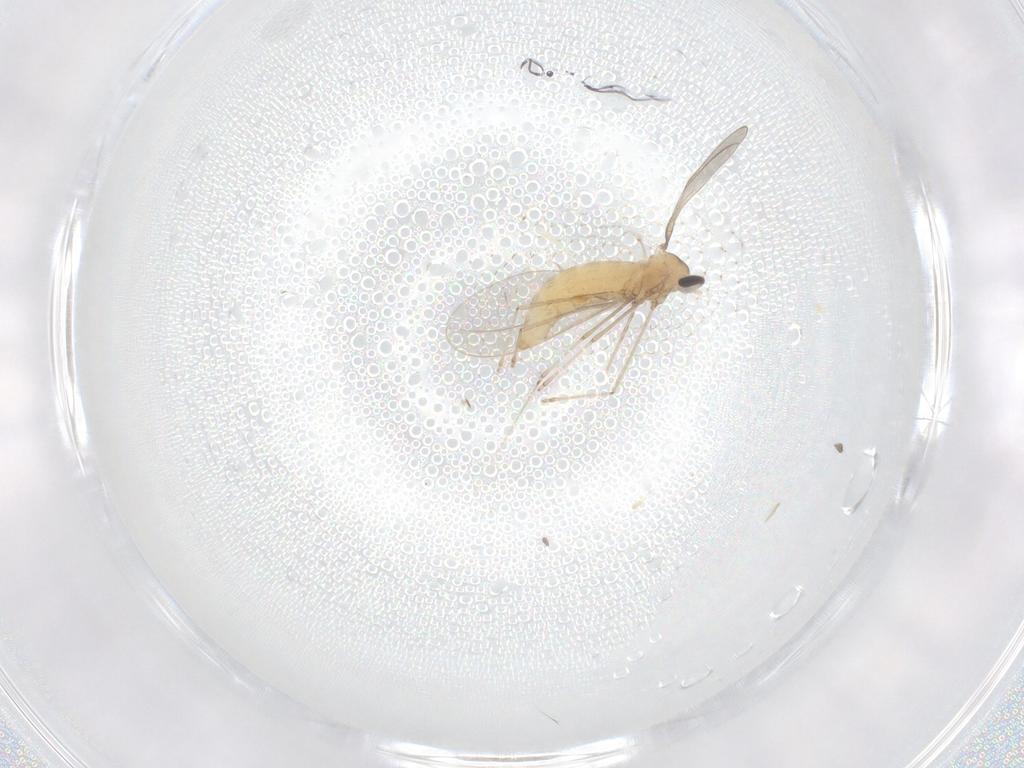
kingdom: Animalia
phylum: Arthropoda
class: Insecta
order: Diptera
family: Cecidomyiidae
